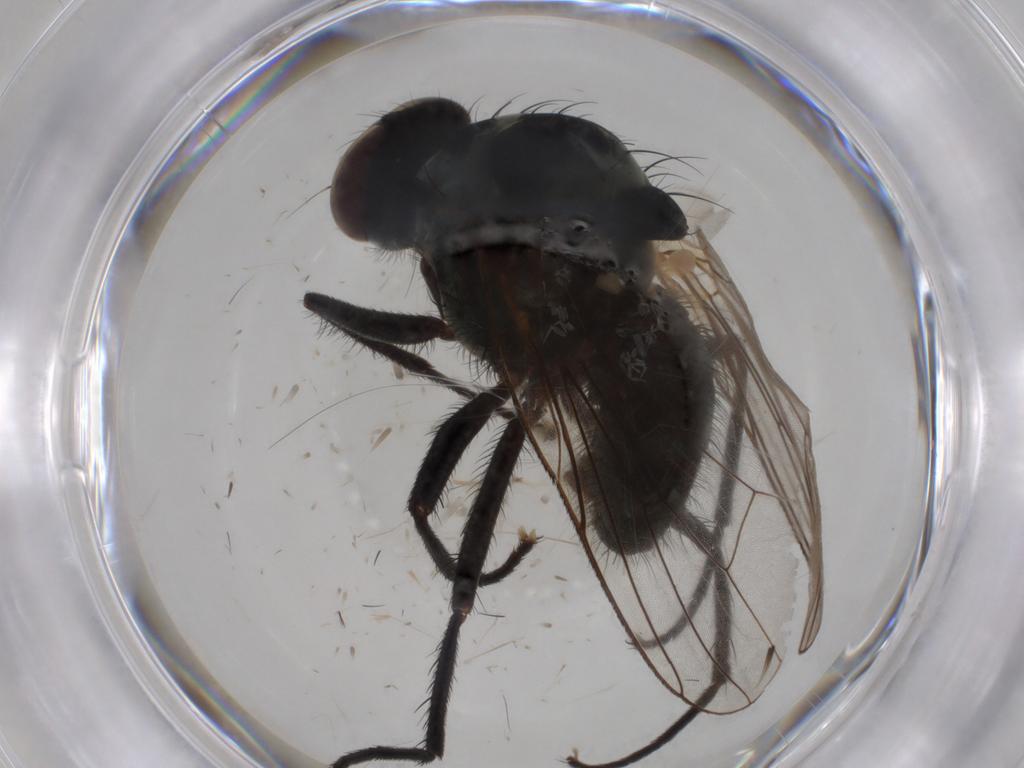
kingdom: Animalia
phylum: Arthropoda
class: Insecta
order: Diptera
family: Anthomyiidae
